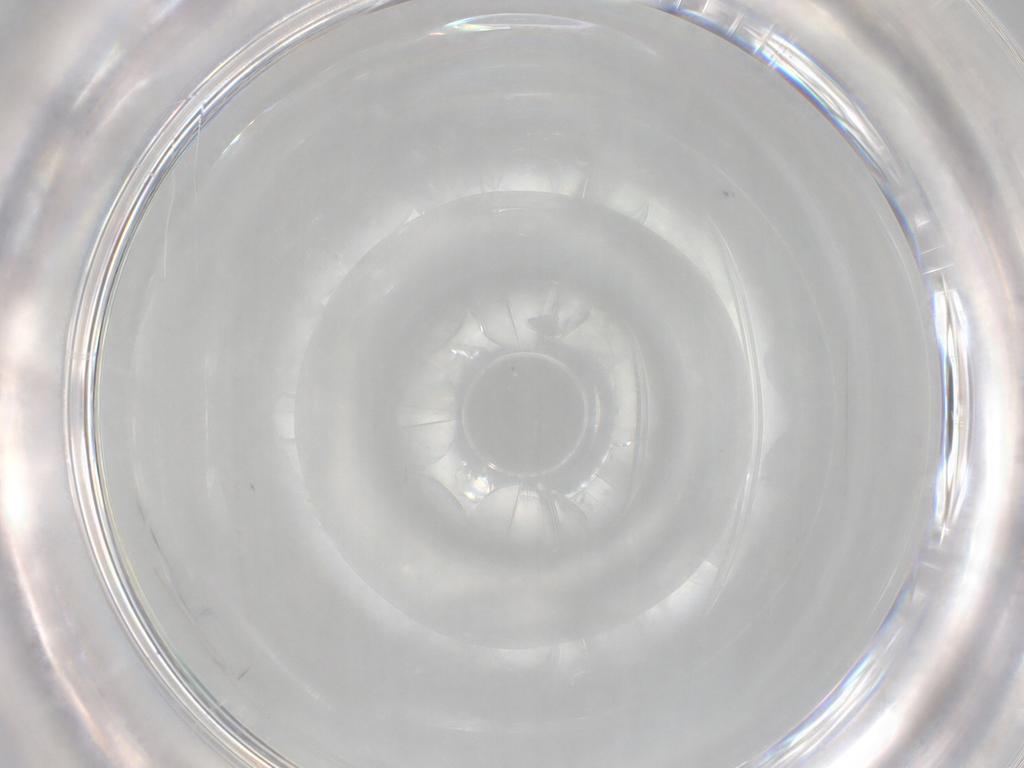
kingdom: Animalia
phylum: Arthropoda
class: Insecta
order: Hymenoptera
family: Ceraphronidae
